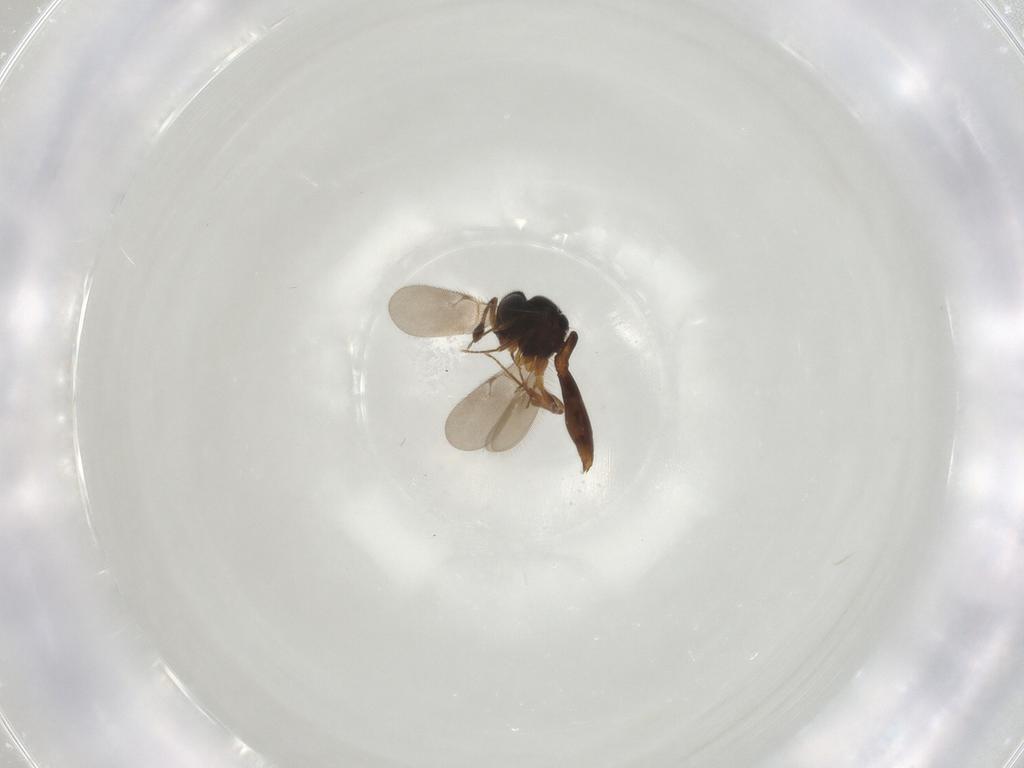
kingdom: Animalia
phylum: Arthropoda
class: Insecta
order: Hymenoptera
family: Scelionidae
